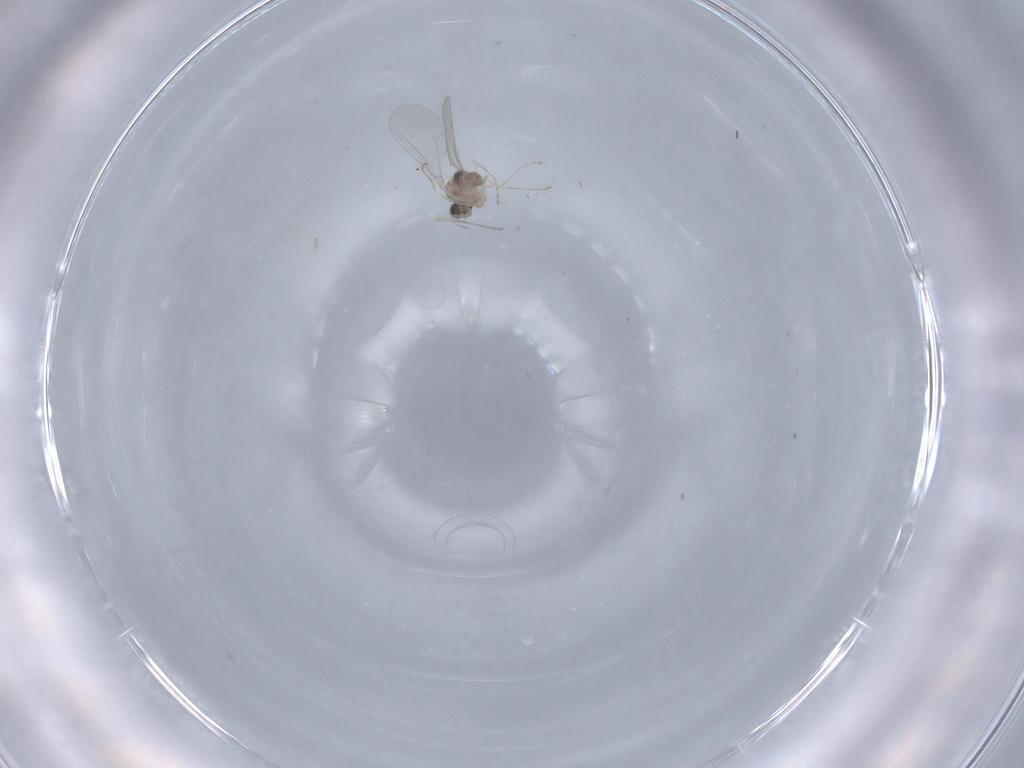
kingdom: Animalia
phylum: Arthropoda
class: Insecta
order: Diptera
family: Cecidomyiidae
